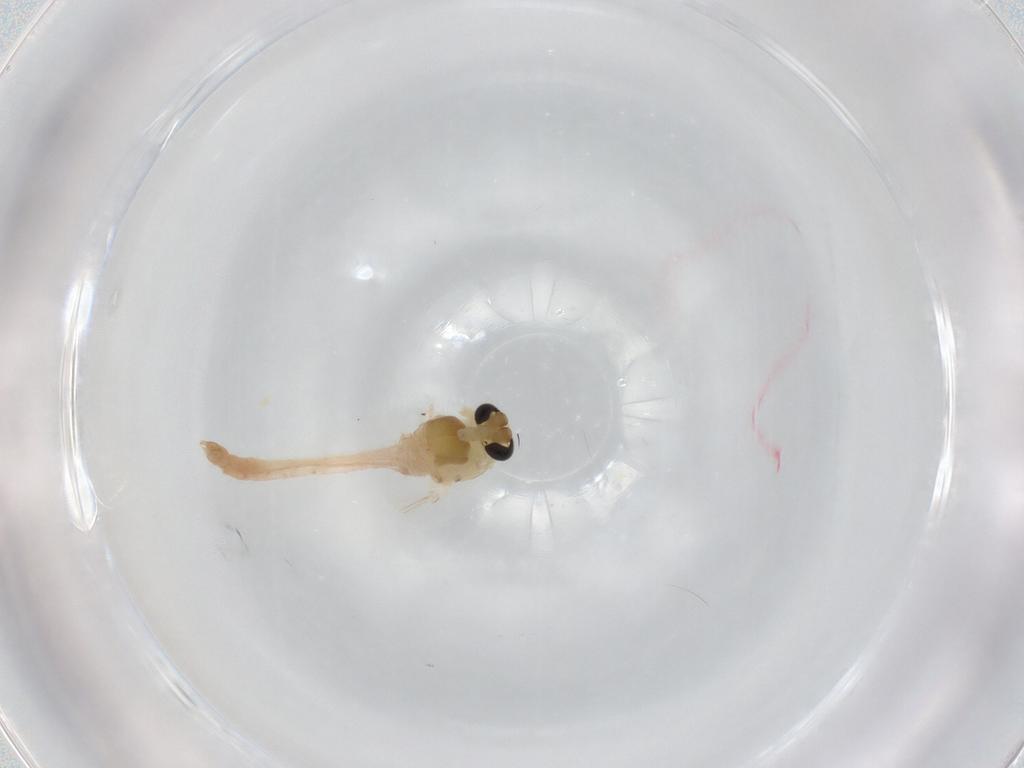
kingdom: Animalia
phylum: Arthropoda
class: Insecta
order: Diptera
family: Chironomidae
